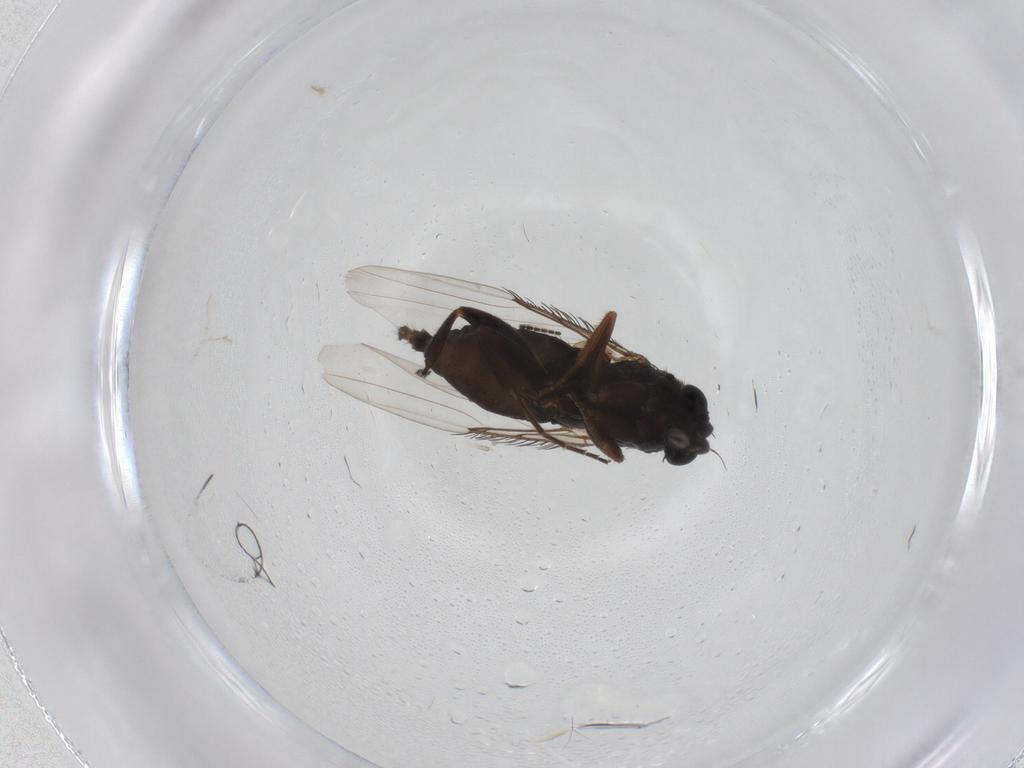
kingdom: Animalia
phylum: Arthropoda
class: Insecta
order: Diptera
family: Phoridae
